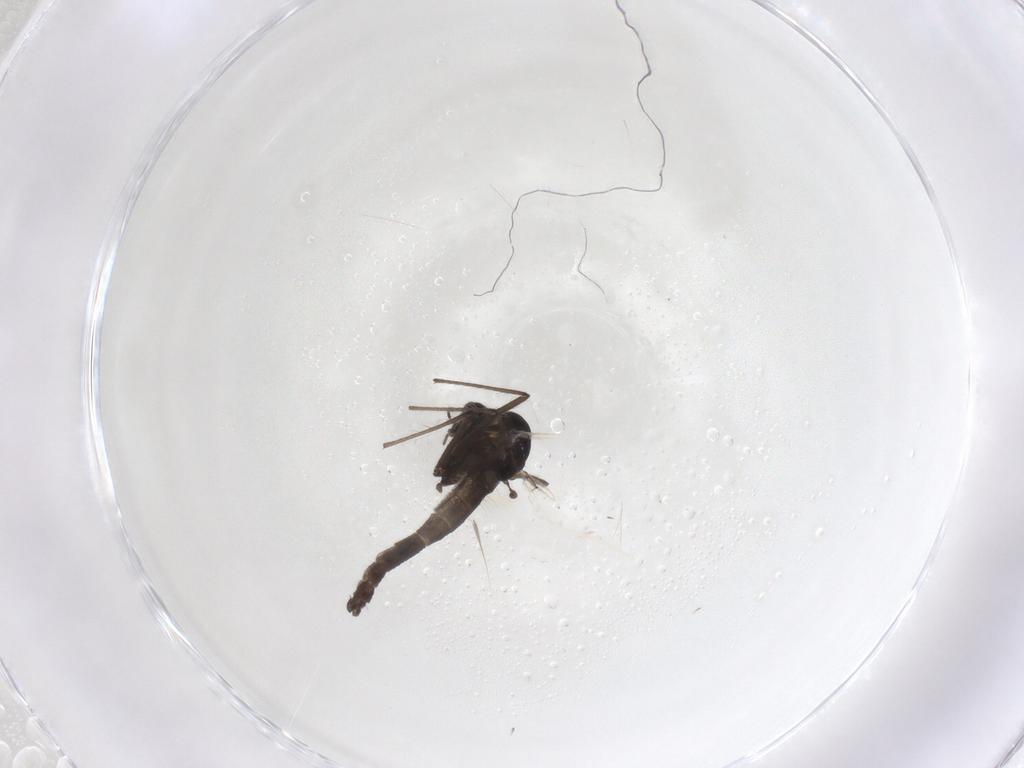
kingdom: Animalia
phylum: Arthropoda
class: Insecta
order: Diptera
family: Chironomidae
